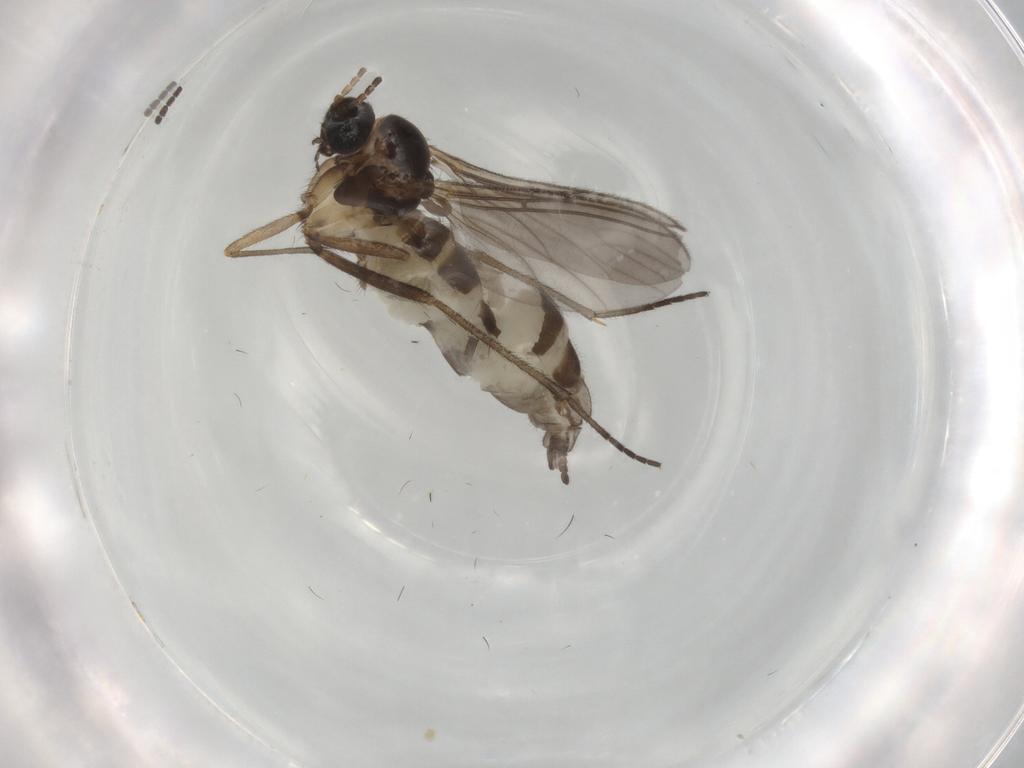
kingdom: Animalia
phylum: Arthropoda
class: Insecta
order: Diptera
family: Sciaridae
